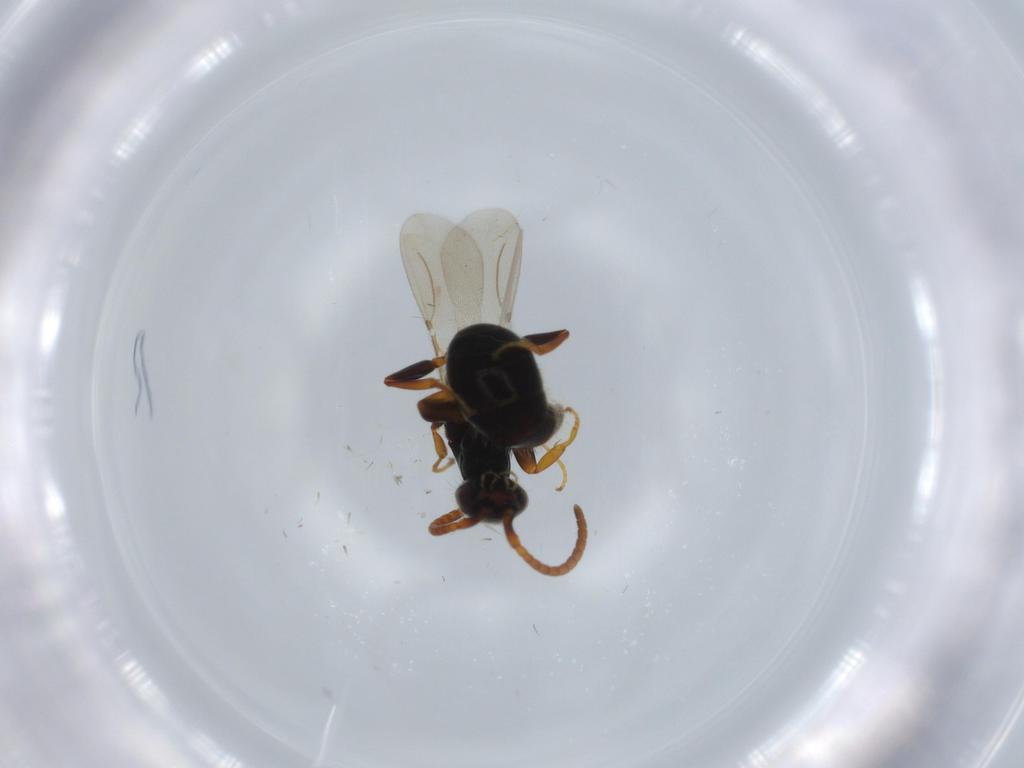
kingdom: Animalia
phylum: Arthropoda
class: Insecta
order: Hymenoptera
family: Bethylidae
